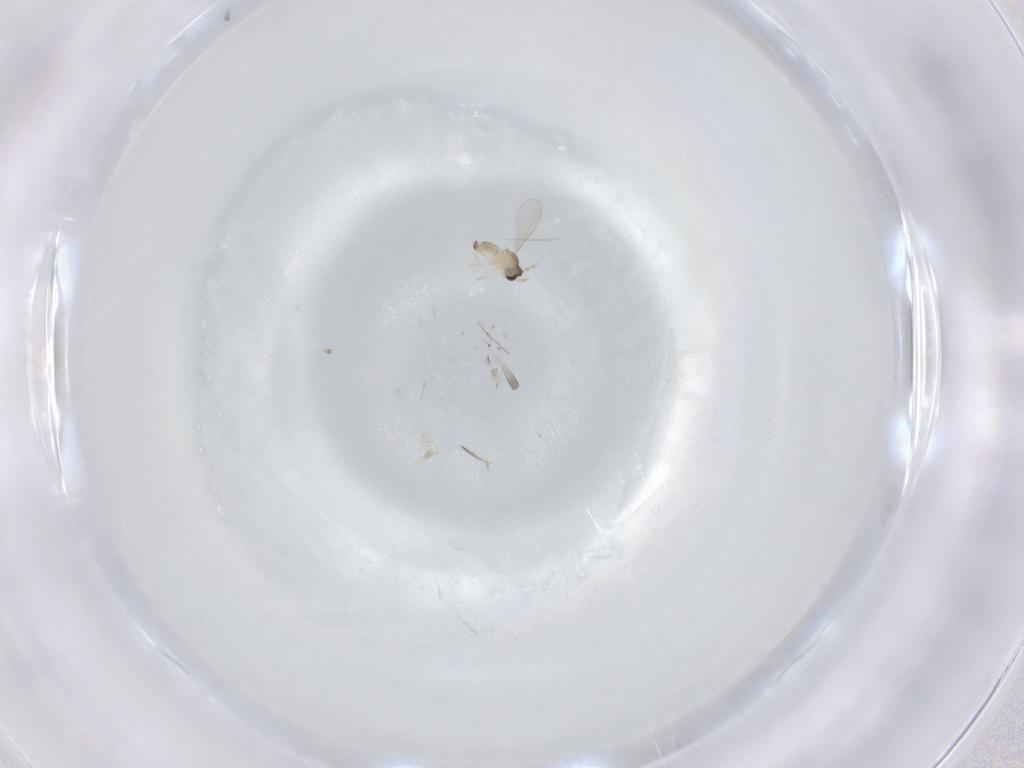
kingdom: Animalia
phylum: Arthropoda
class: Insecta
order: Diptera
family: Cecidomyiidae
